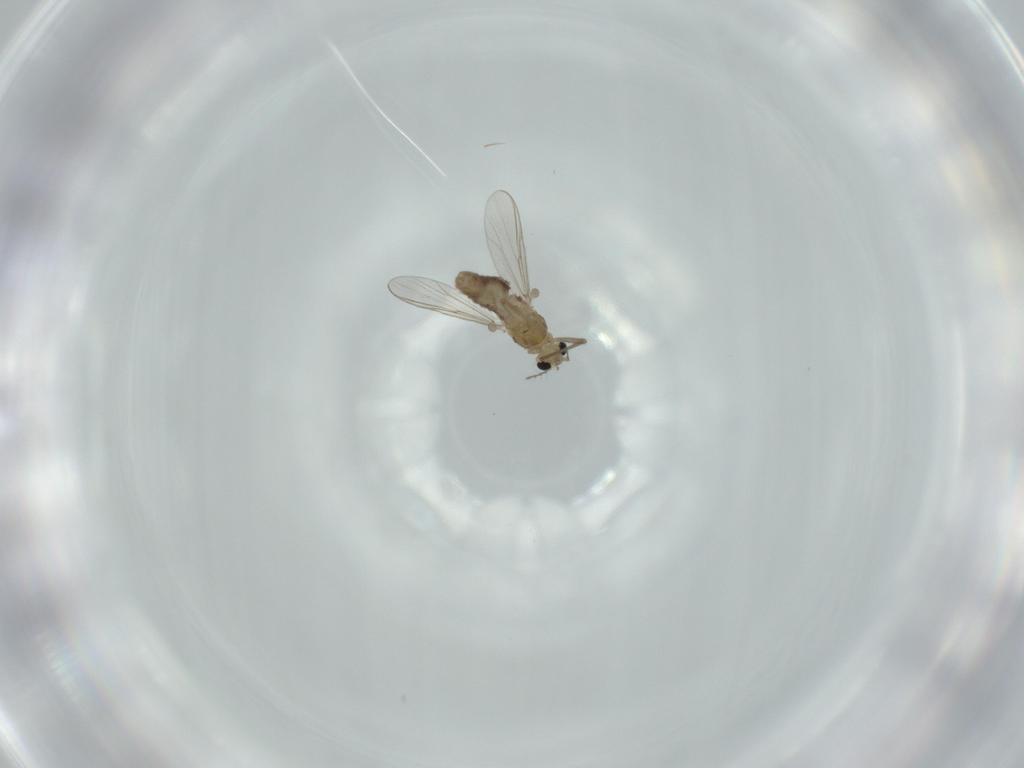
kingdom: Animalia
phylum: Arthropoda
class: Insecta
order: Diptera
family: Chironomidae
